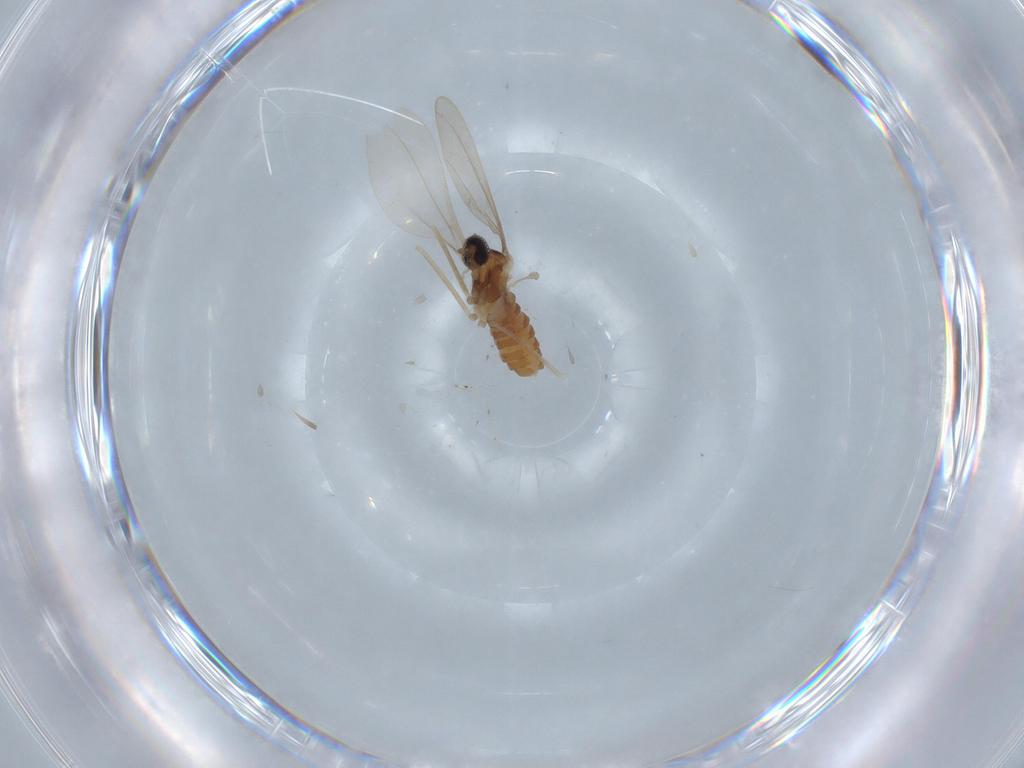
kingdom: Animalia
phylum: Arthropoda
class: Insecta
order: Diptera
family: Cecidomyiidae
